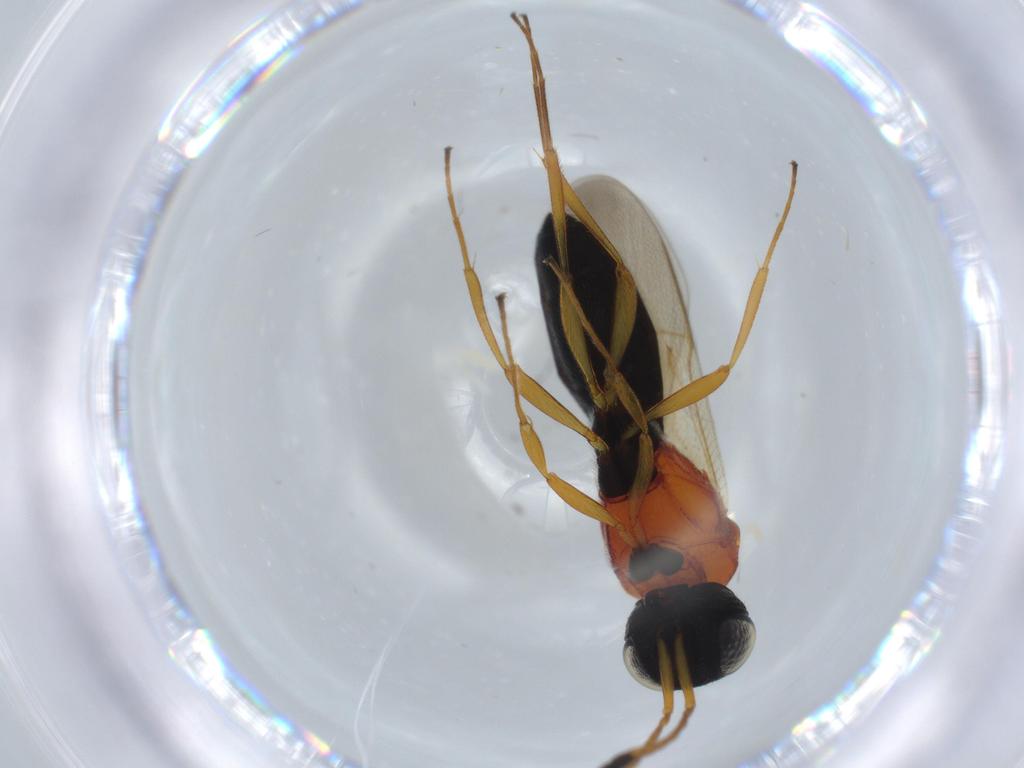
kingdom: Animalia
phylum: Arthropoda
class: Insecta
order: Hymenoptera
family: Scelionidae
